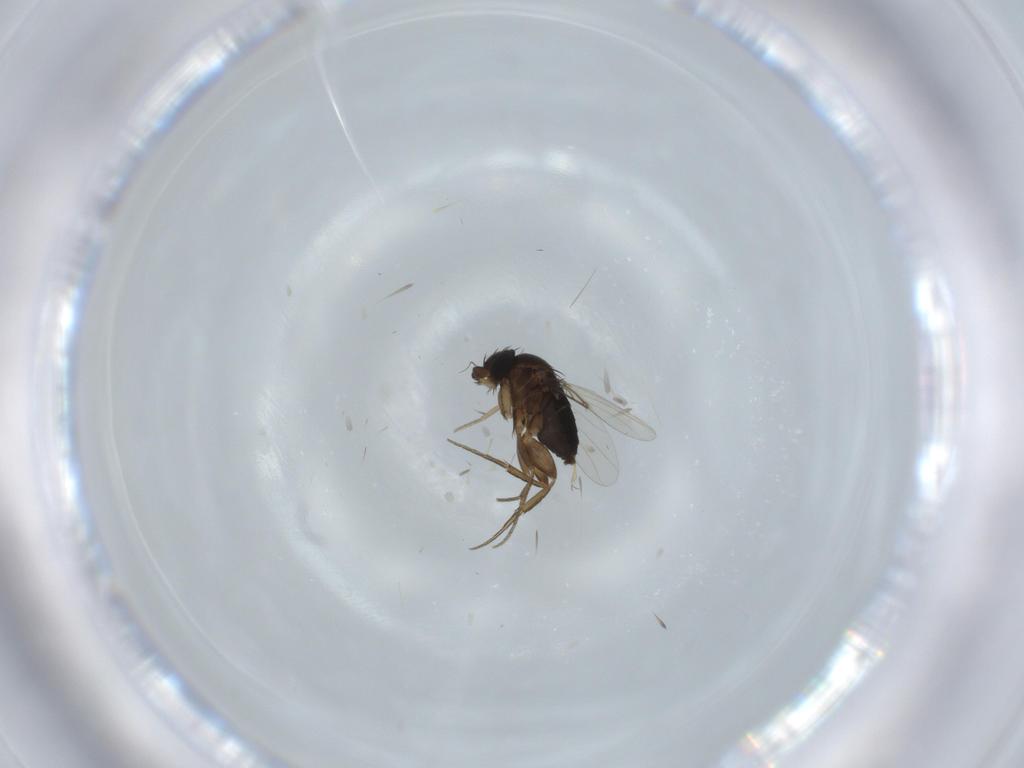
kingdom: Animalia
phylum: Arthropoda
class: Insecta
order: Diptera
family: Phoridae
